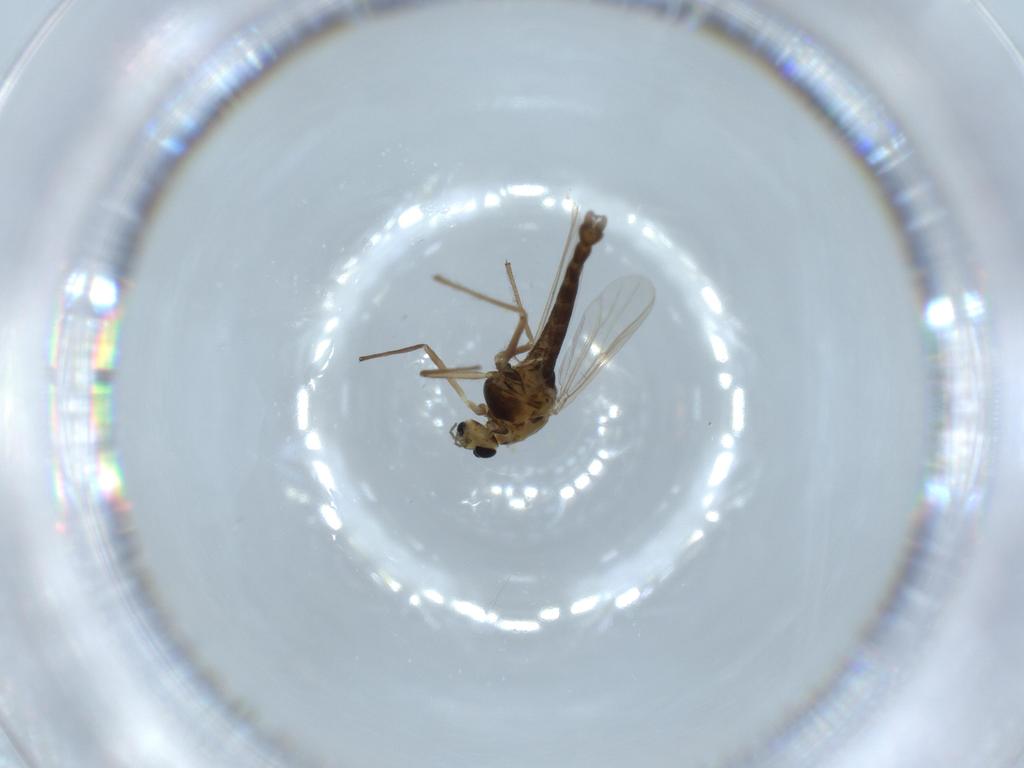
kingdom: Animalia
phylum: Arthropoda
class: Insecta
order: Diptera
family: Chironomidae
